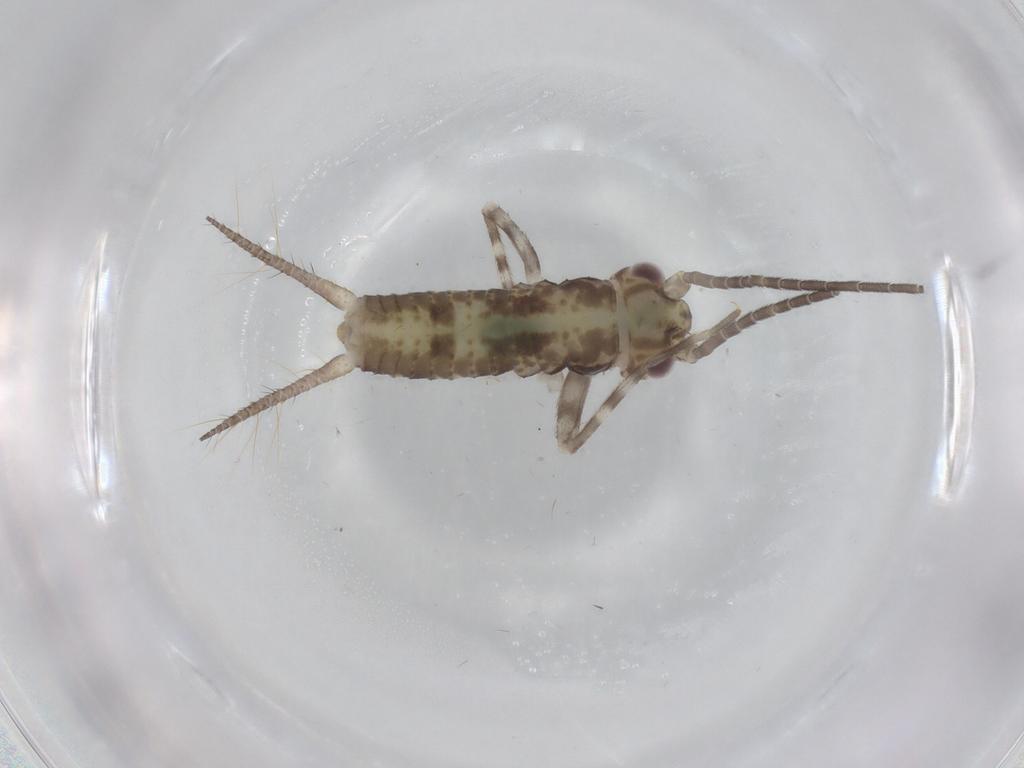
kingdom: Animalia
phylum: Arthropoda
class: Insecta
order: Orthoptera
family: Gryllidae
